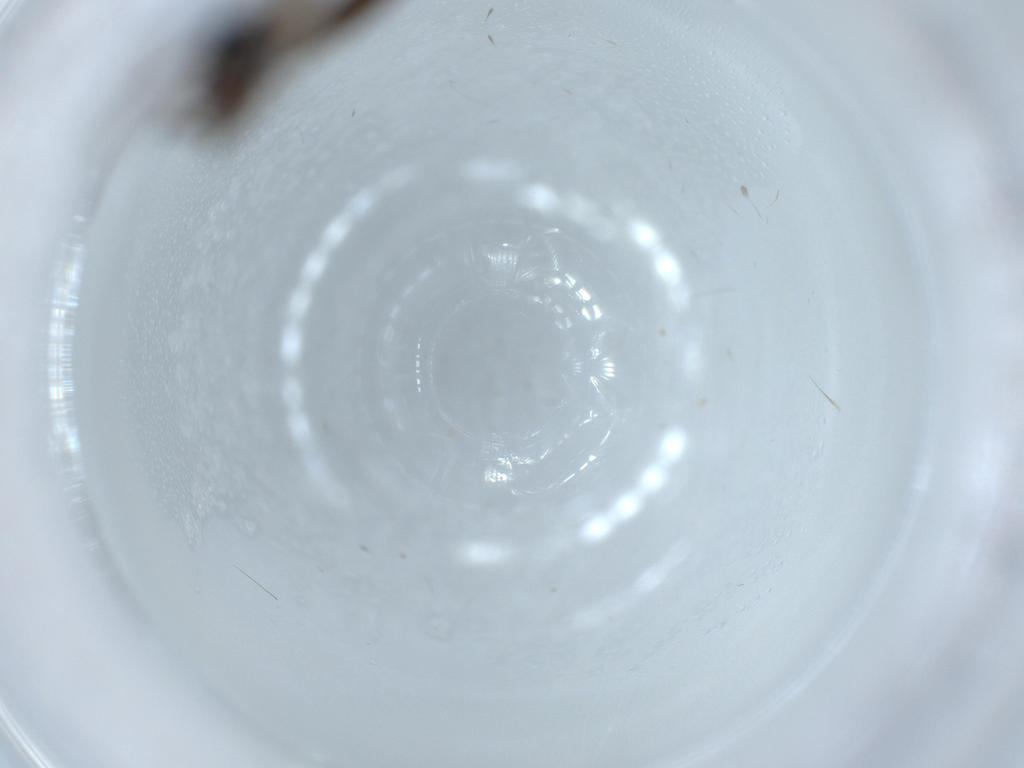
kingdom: Animalia
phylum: Arthropoda
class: Insecta
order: Diptera
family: Sciaridae
